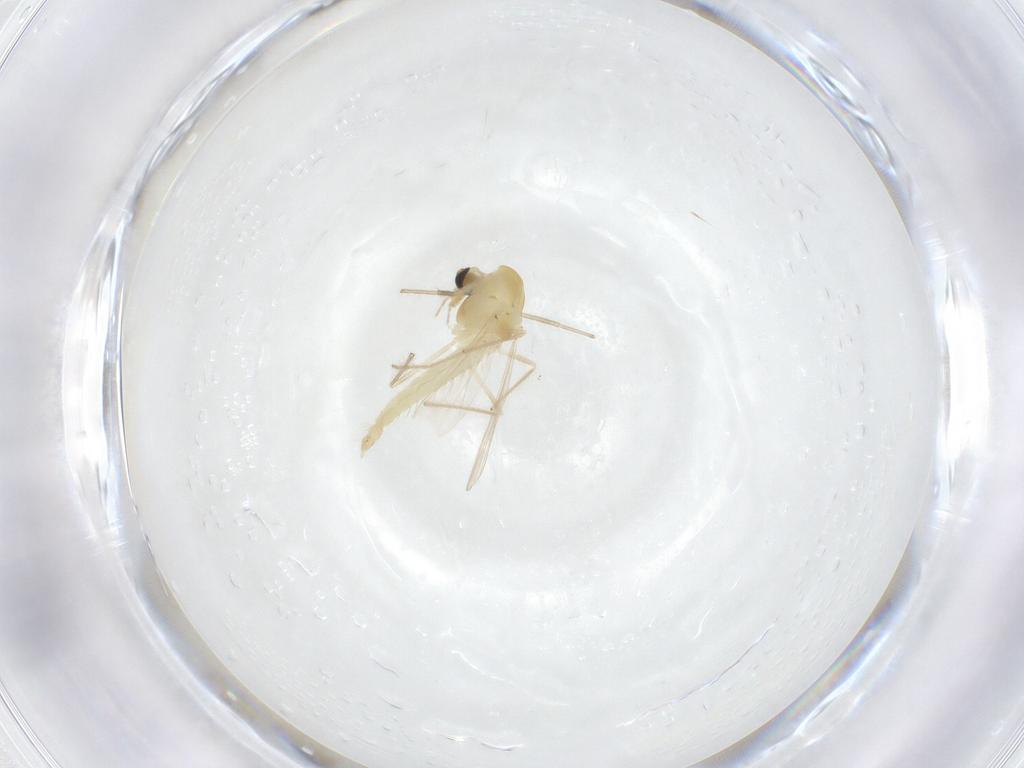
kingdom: Animalia
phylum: Arthropoda
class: Insecta
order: Diptera
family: Chironomidae
